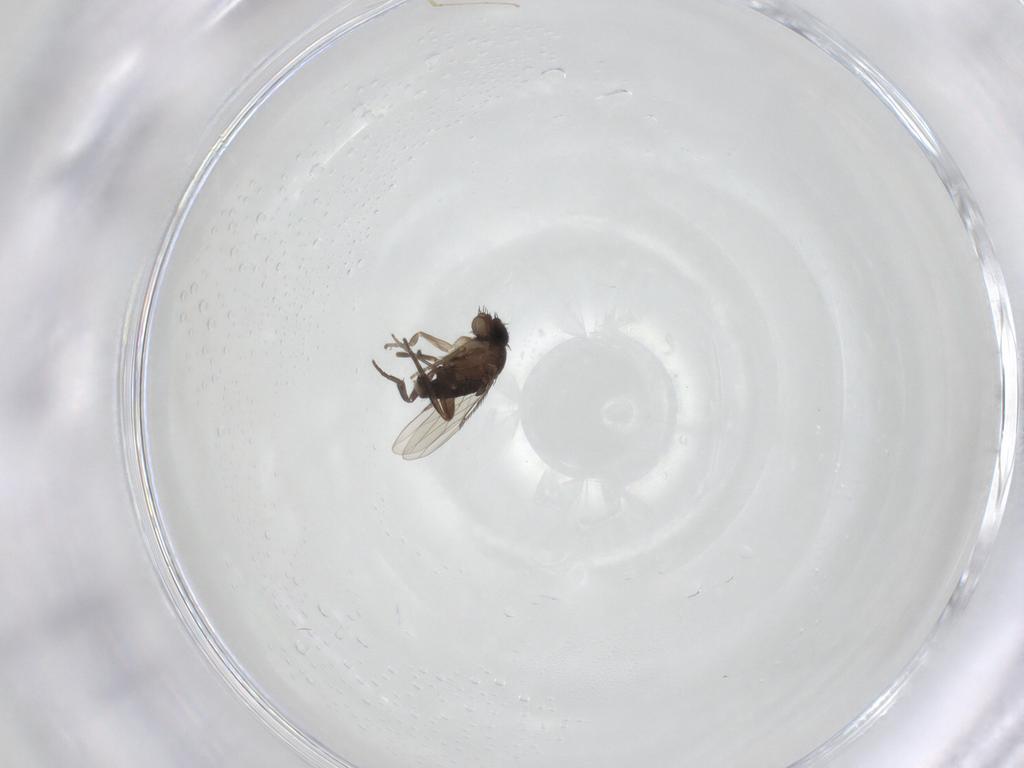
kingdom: Animalia
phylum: Arthropoda
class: Insecta
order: Diptera
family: Phoridae
